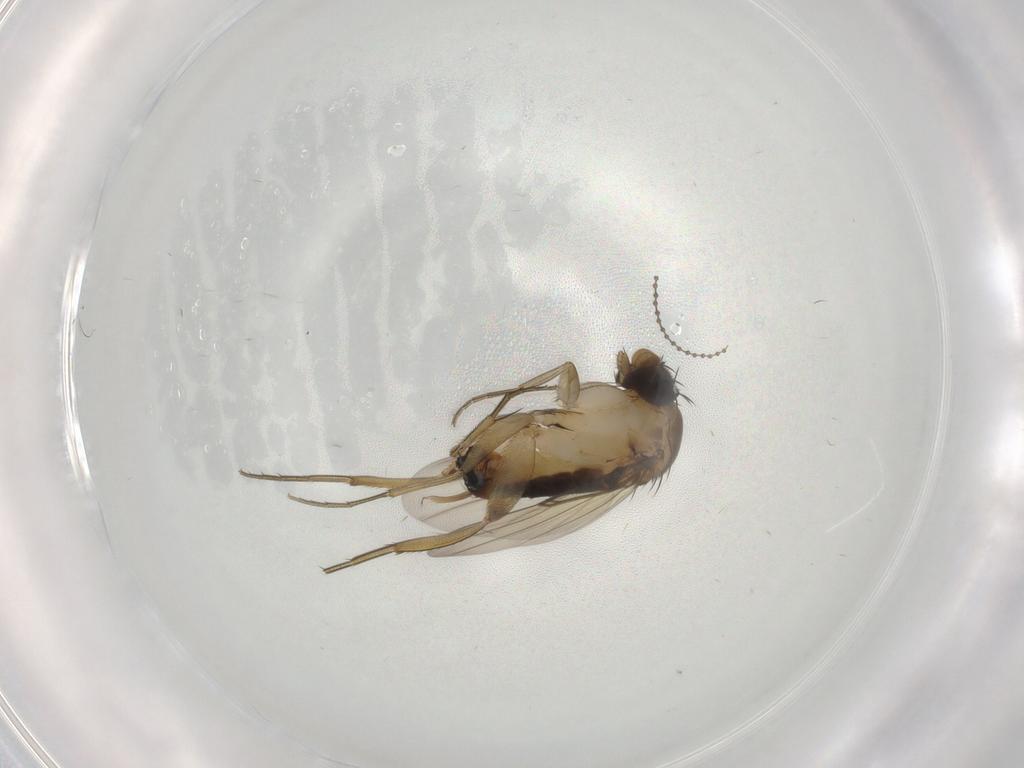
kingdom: Animalia
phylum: Arthropoda
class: Insecta
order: Diptera
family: Phoridae
